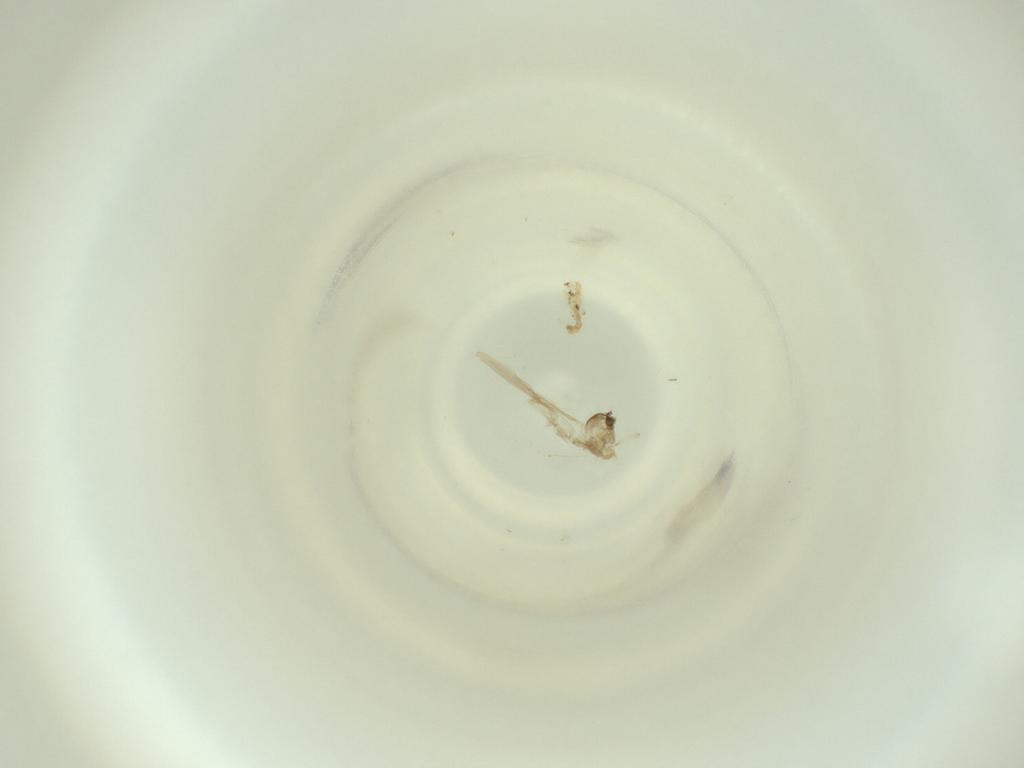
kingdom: Animalia
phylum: Arthropoda
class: Insecta
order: Diptera
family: Cecidomyiidae
